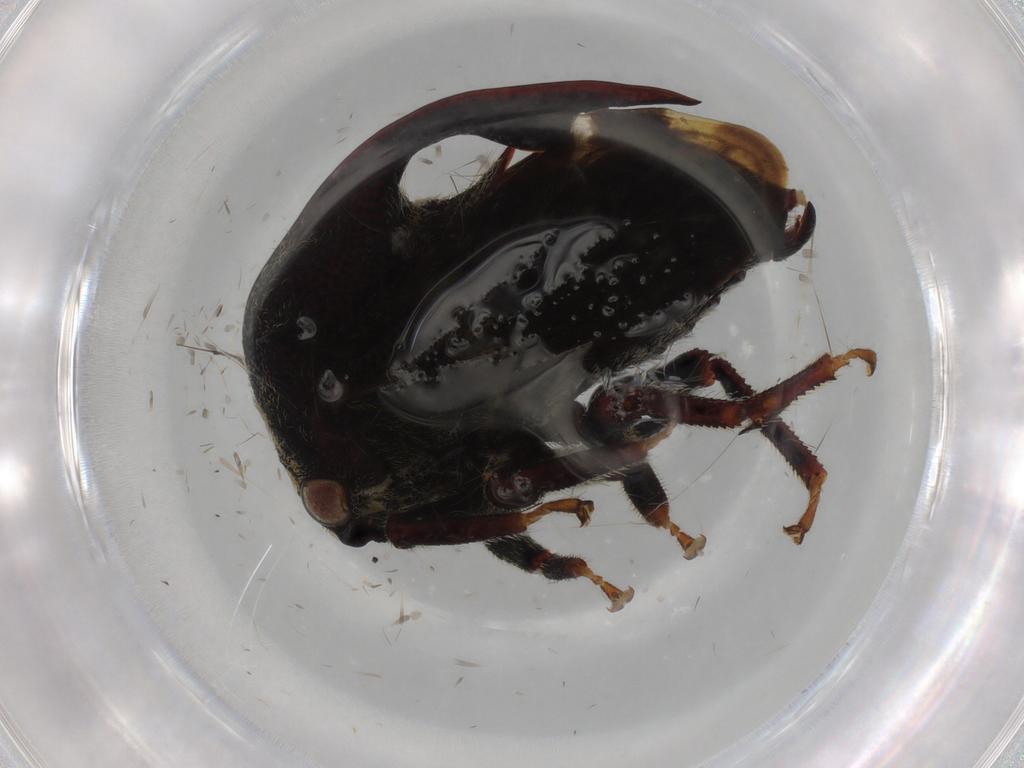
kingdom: Animalia
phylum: Arthropoda
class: Insecta
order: Hemiptera
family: Membracidae
